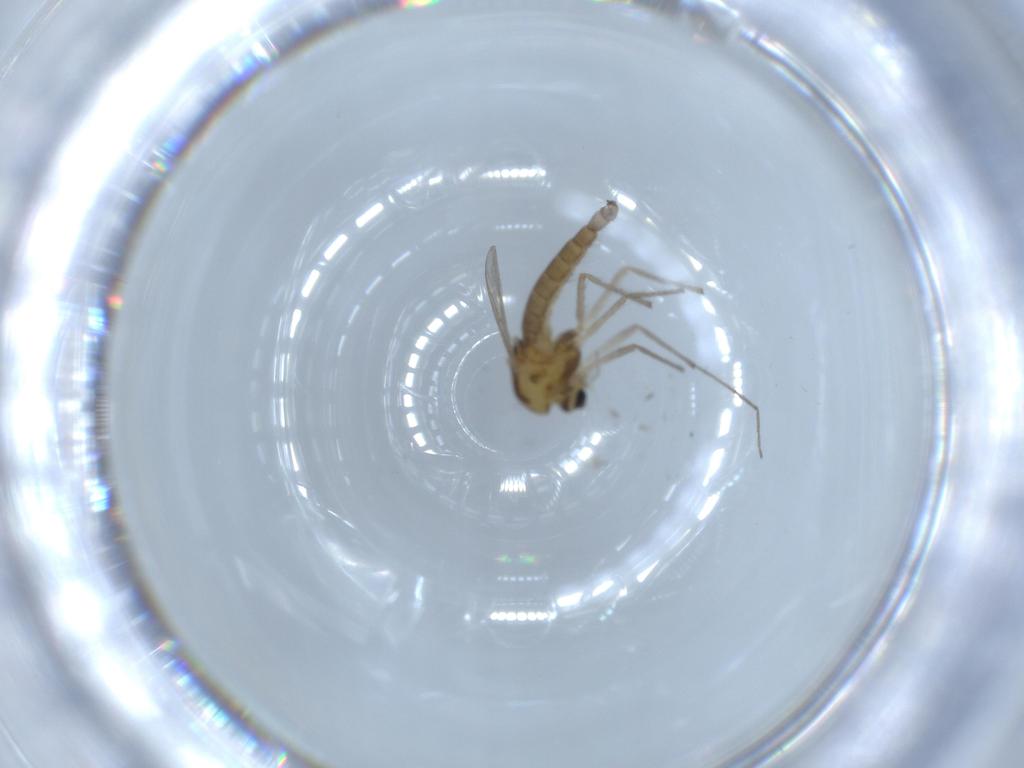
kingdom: Animalia
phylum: Arthropoda
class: Insecta
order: Diptera
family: Chironomidae
